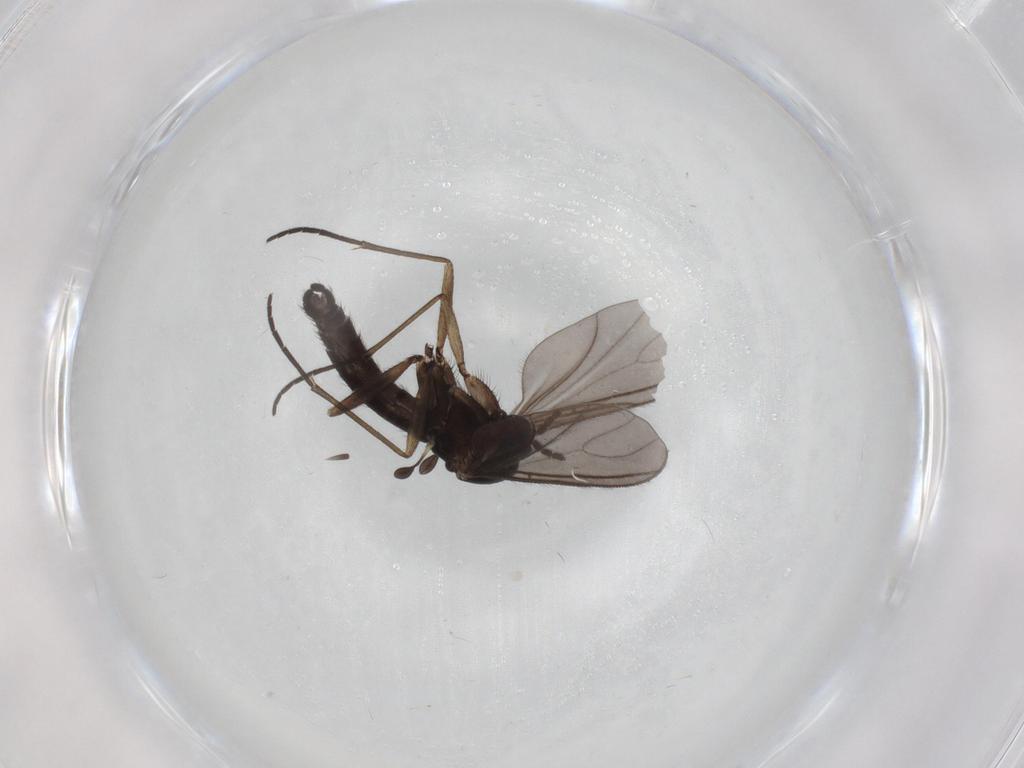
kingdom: Animalia
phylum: Arthropoda
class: Insecta
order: Diptera
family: Sciaridae
